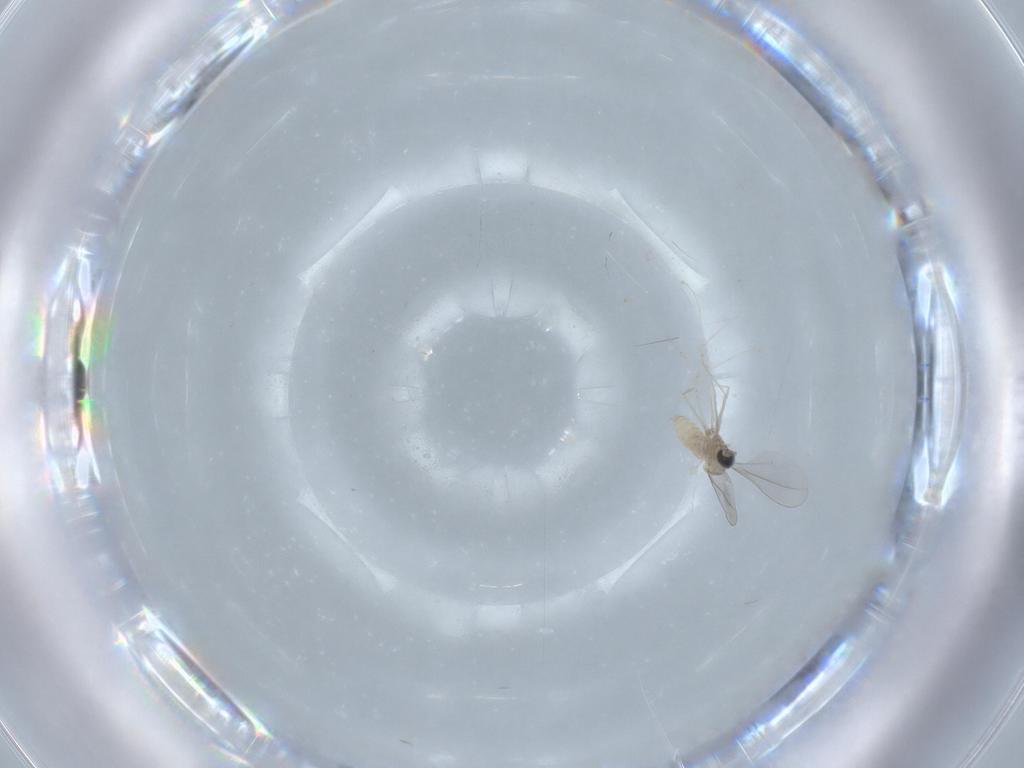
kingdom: Animalia
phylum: Arthropoda
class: Insecta
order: Diptera
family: Cecidomyiidae
